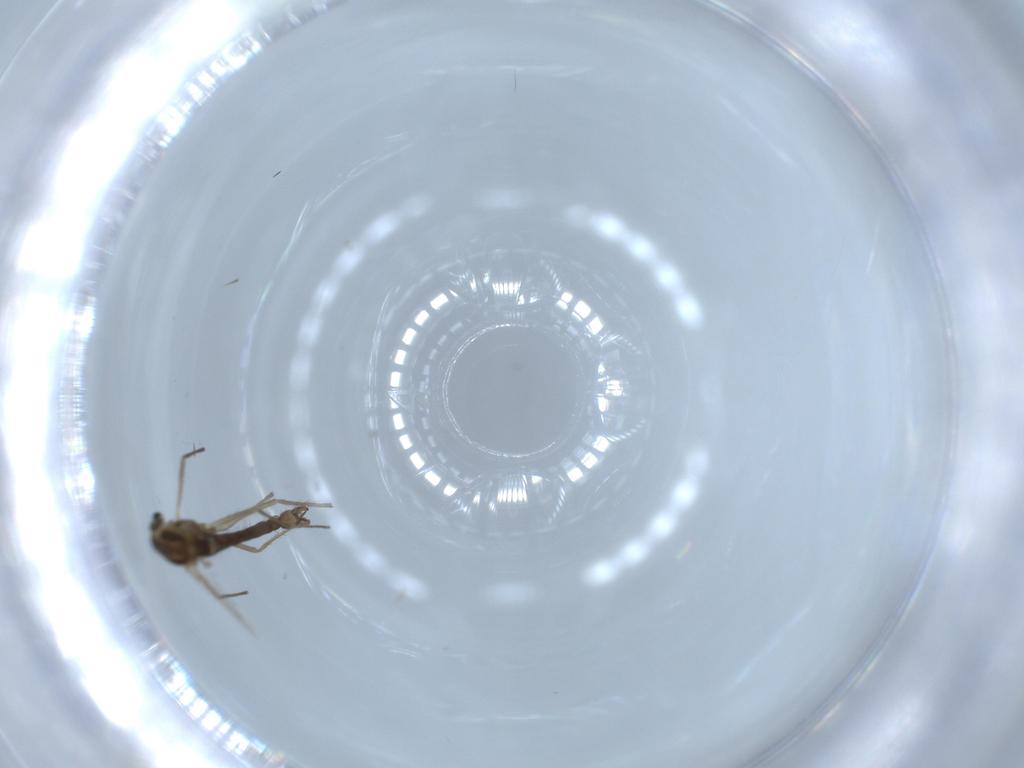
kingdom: Animalia
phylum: Arthropoda
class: Insecta
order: Diptera
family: Chironomidae
